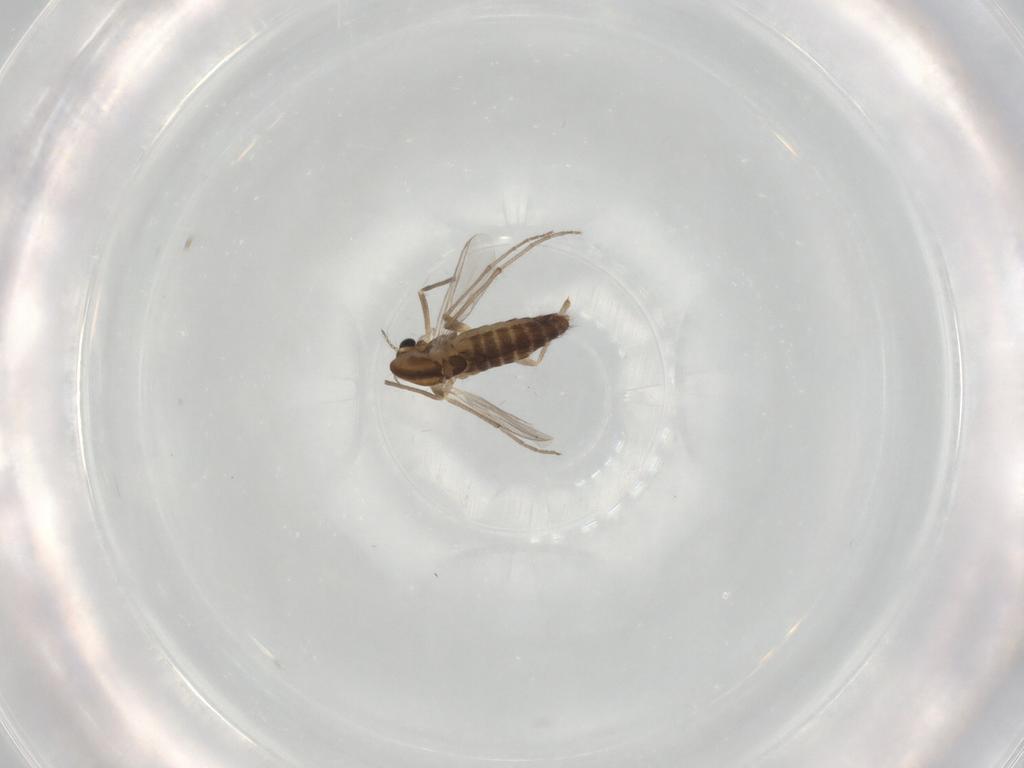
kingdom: Animalia
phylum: Arthropoda
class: Insecta
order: Diptera
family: Chironomidae
